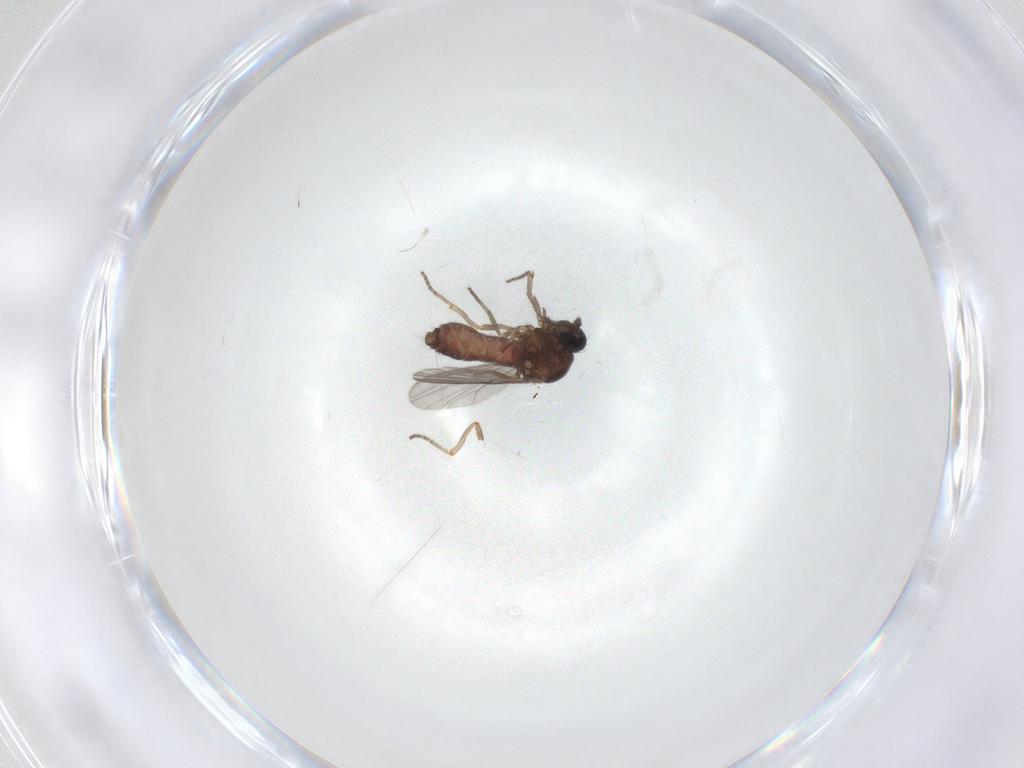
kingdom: Animalia
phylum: Arthropoda
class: Insecta
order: Diptera
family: Ceratopogonidae
